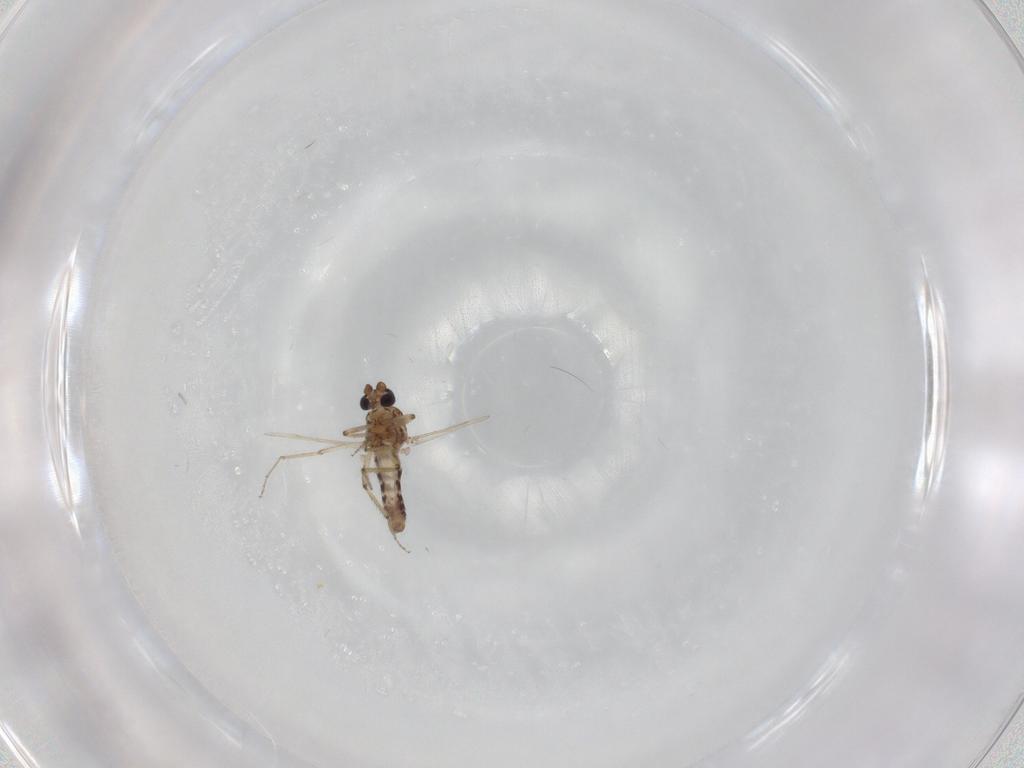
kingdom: Animalia
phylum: Arthropoda
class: Insecta
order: Diptera
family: Ceratopogonidae
